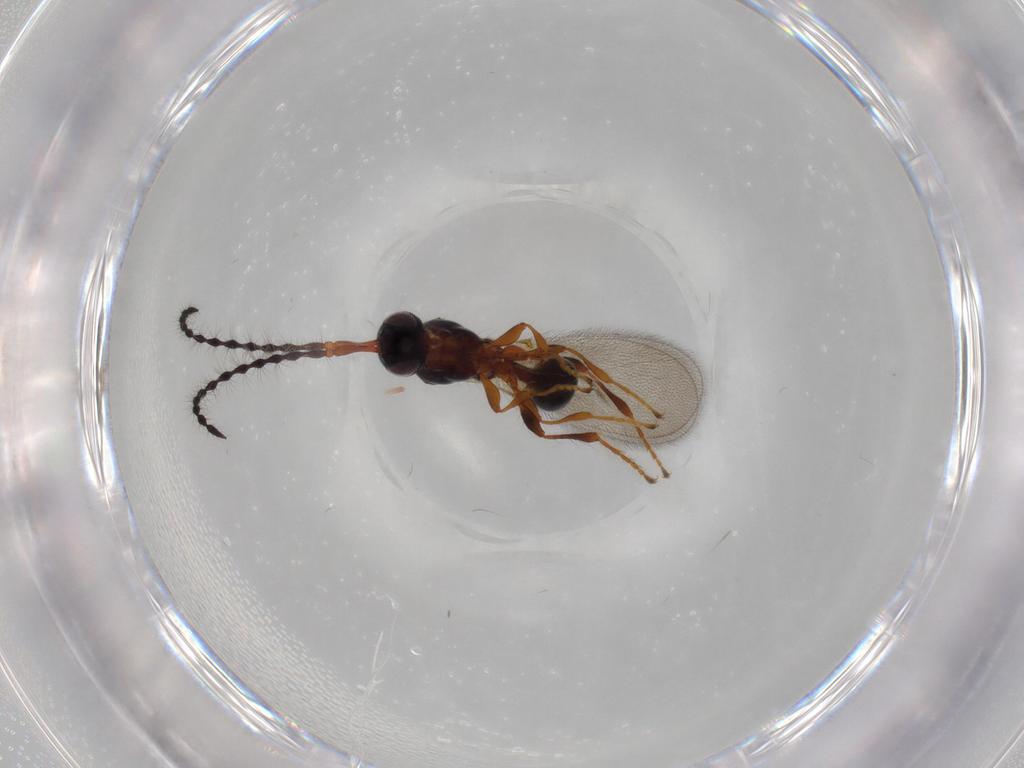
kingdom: Animalia
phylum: Arthropoda
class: Insecta
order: Hymenoptera
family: Diapriidae
